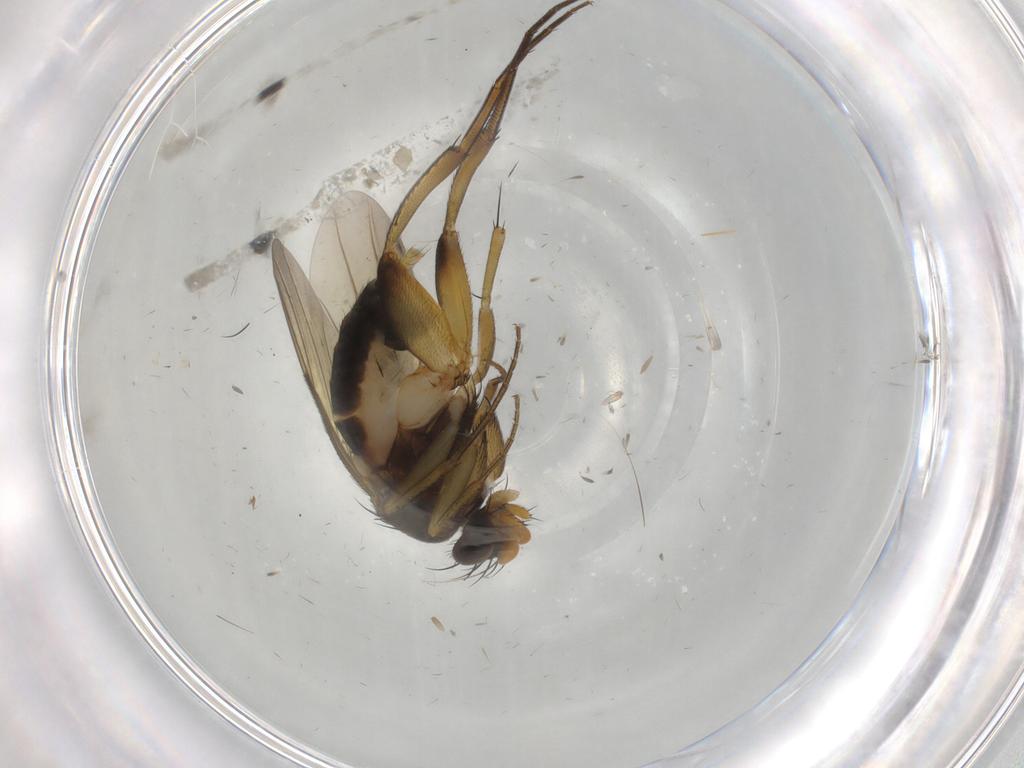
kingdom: Animalia
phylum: Arthropoda
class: Insecta
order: Diptera
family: Phoridae
